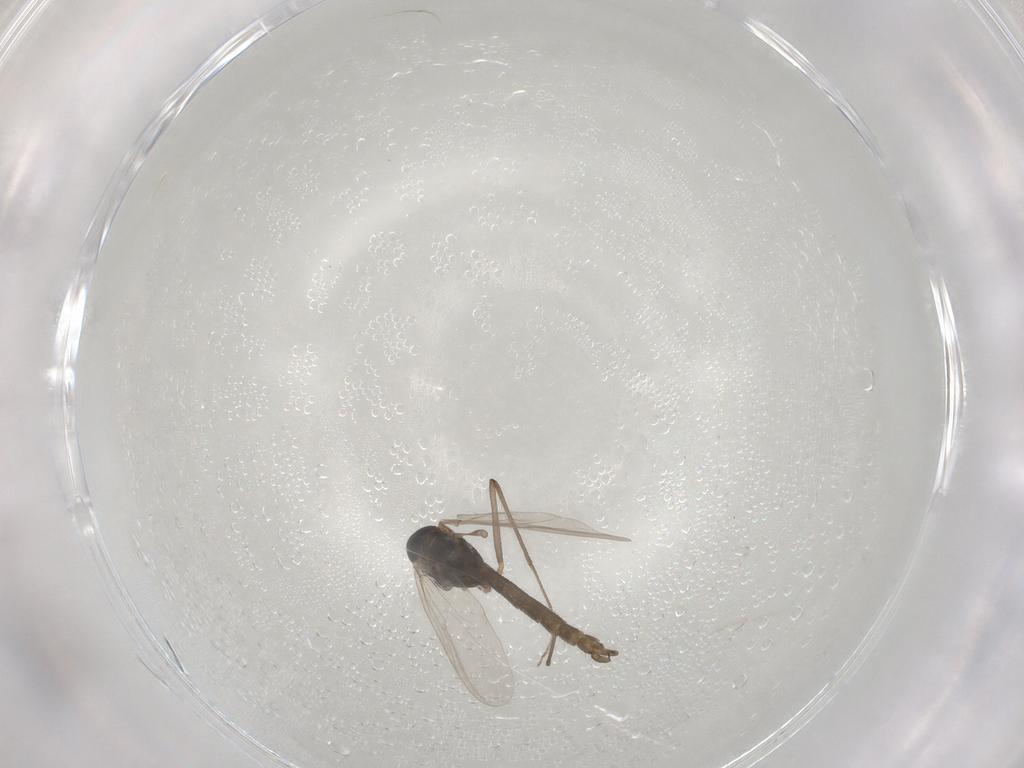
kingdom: Animalia
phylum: Arthropoda
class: Insecta
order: Diptera
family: Chironomidae
